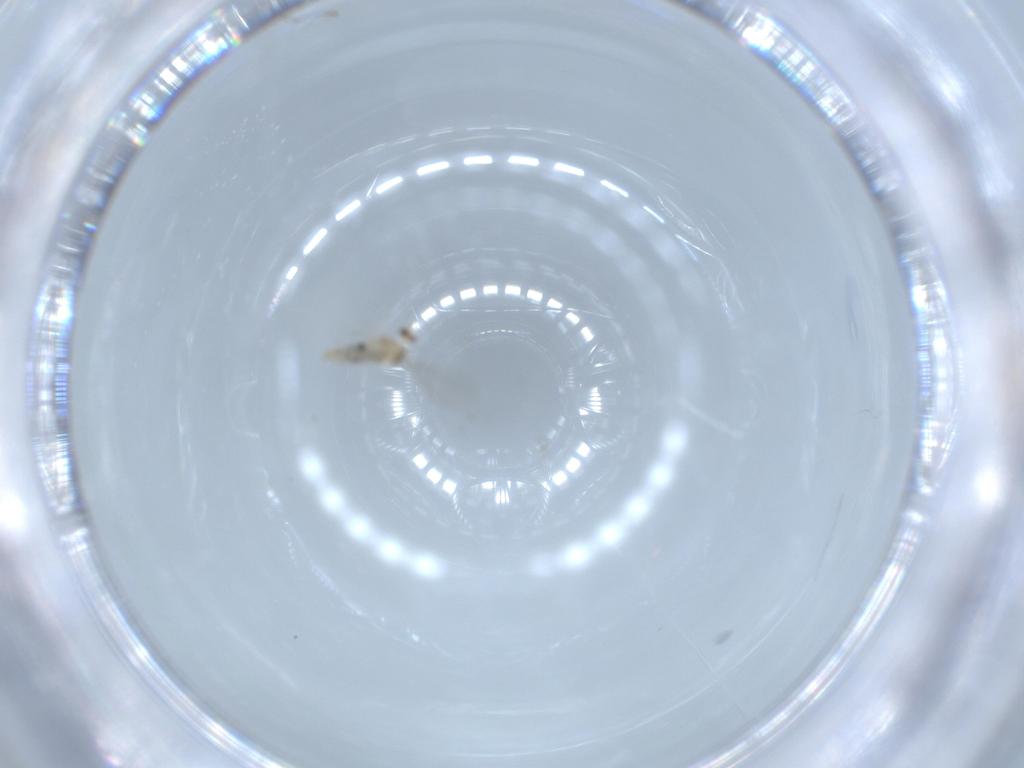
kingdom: Animalia
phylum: Arthropoda
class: Insecta
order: Diptera
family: Cecidomyiidae
